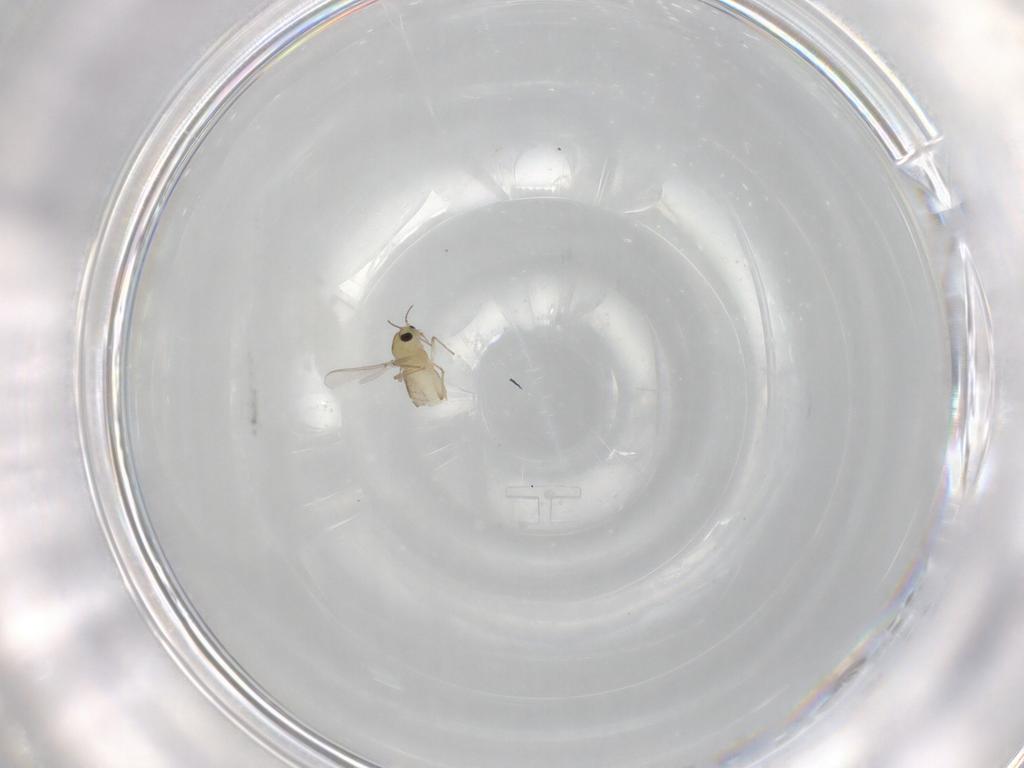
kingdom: Animalia
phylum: Arthropoda
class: Insecta
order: Diptera
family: Chironomidae
